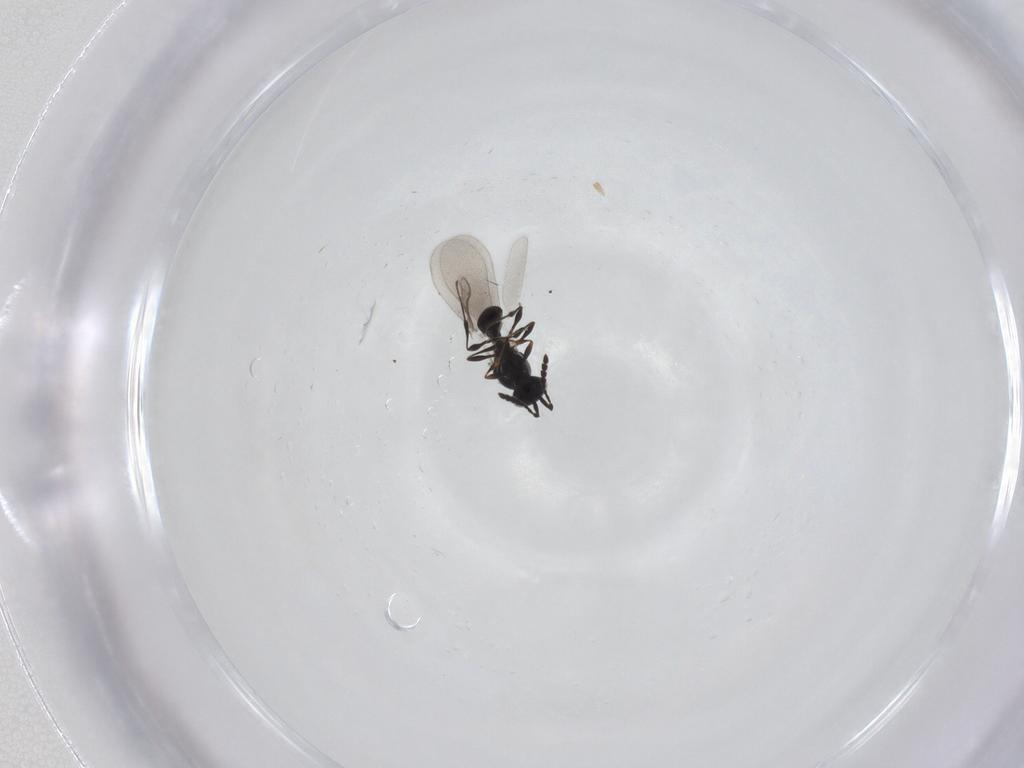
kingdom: Animalia
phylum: Arthropoda
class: Insecta
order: Hymenoptera
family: Platygastridae
